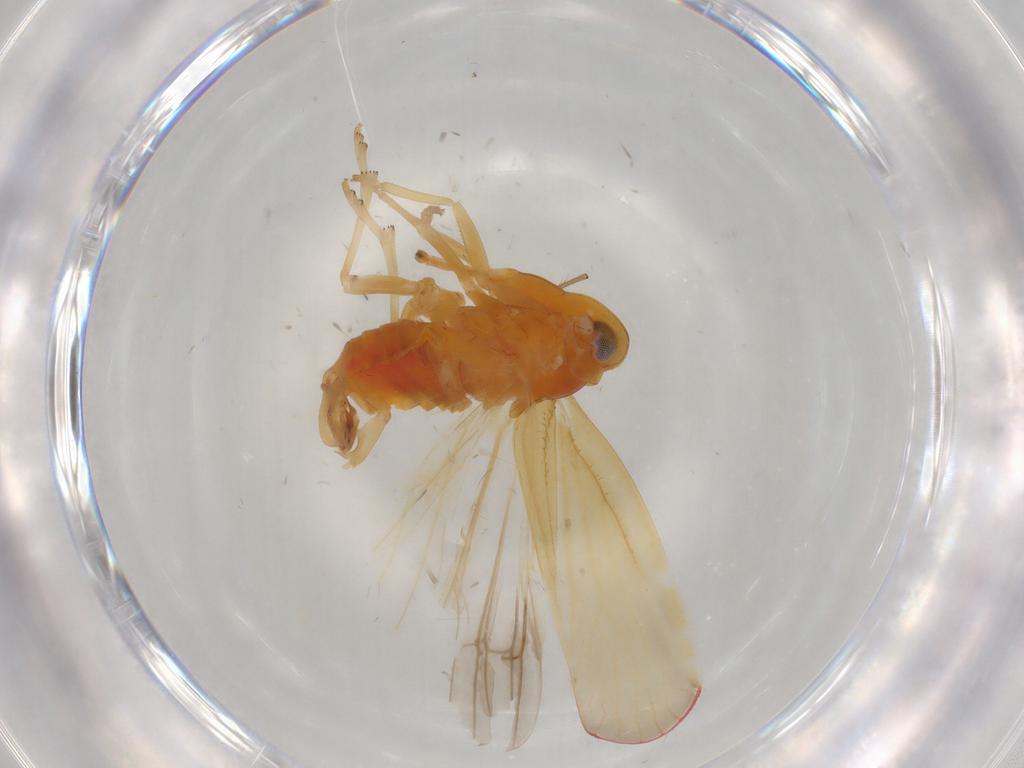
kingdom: Animalia
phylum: Arthropoda
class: Insecta
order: Hemiptera
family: Derbidae
